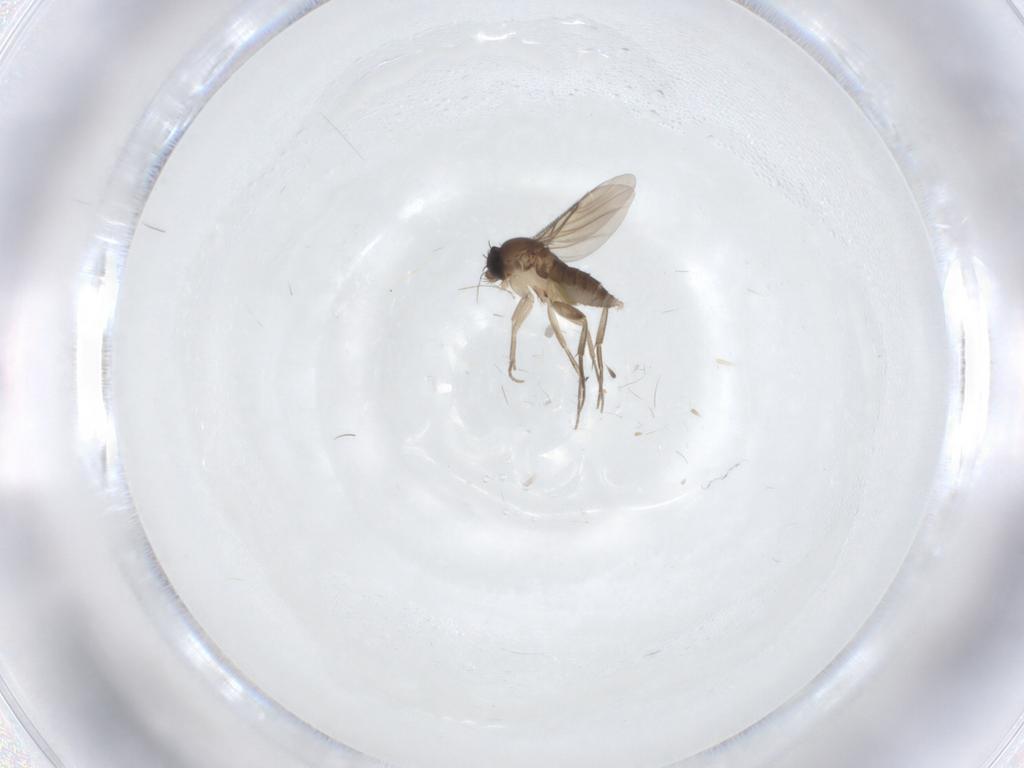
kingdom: Animalia
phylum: Arthropoda
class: Insecta
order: Diptera
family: Phoridae
